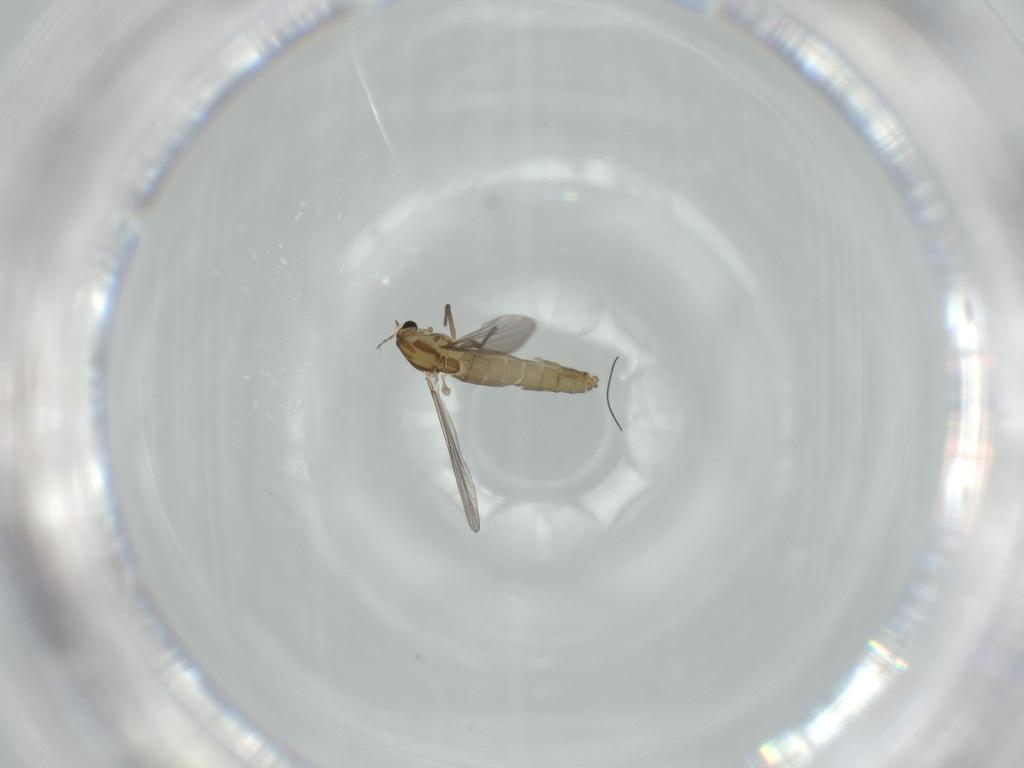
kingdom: Animalia
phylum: Arthropoda
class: Insecta
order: Diptera
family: Chironomidae
